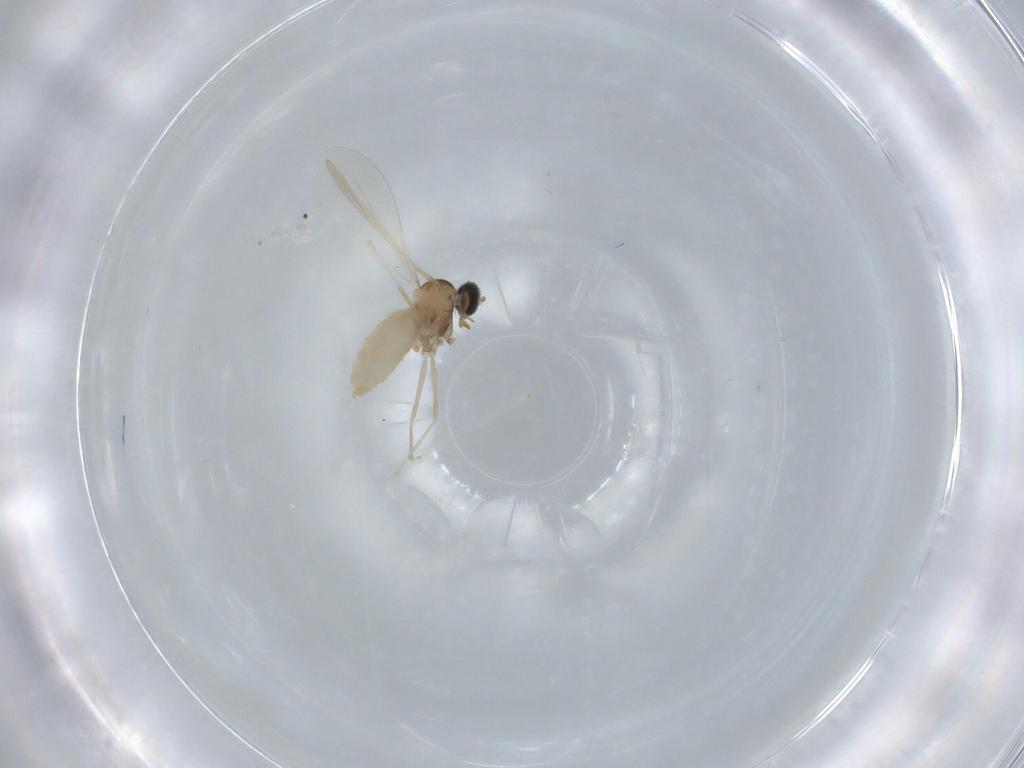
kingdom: Animalia
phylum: Arthropoda
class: Insecta
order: Diptera
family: Cecidomyiidae
